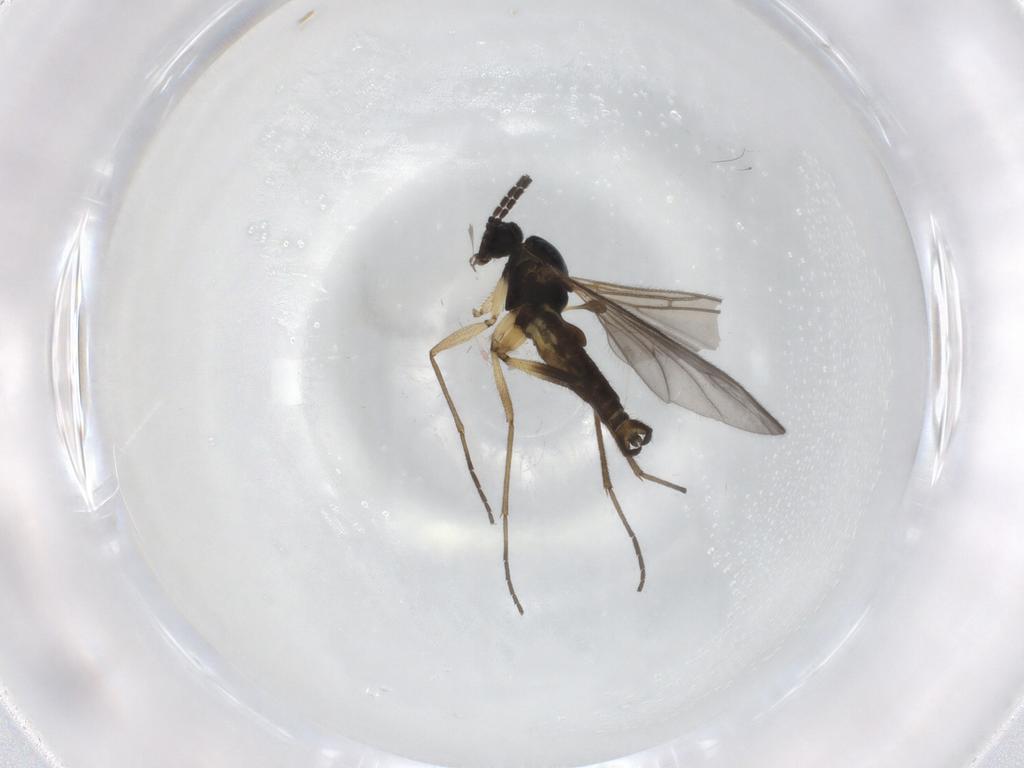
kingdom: Animalia
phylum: Arthropoda
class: Insecta
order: Diptera
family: Sciaridae
